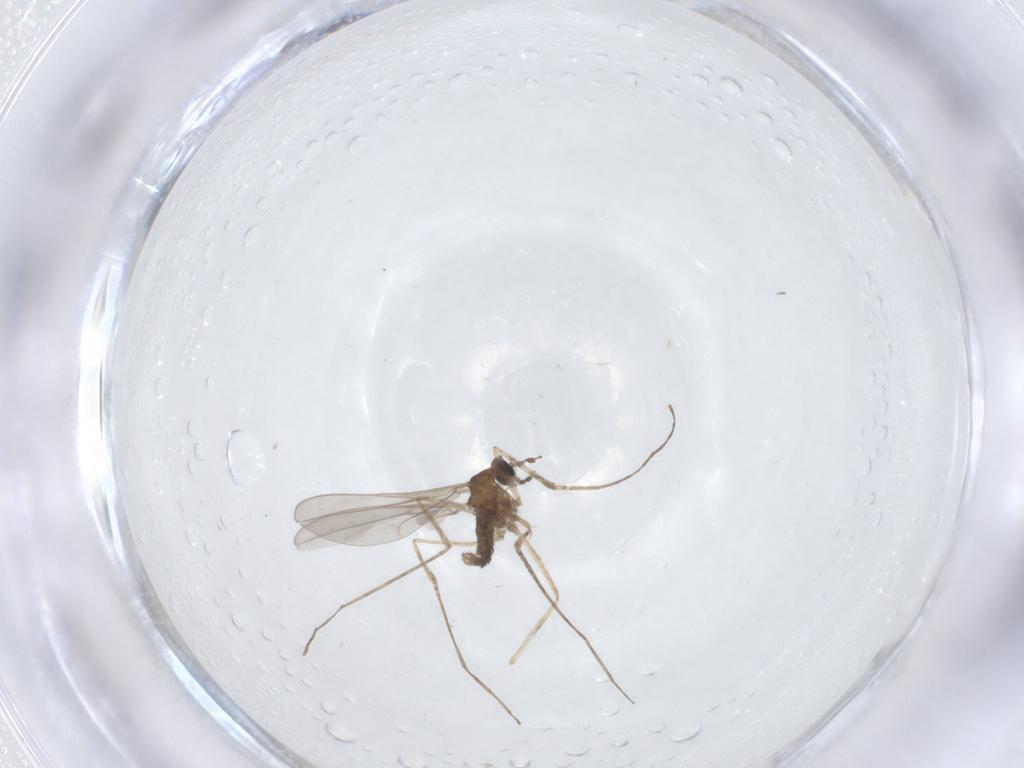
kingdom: Animalia
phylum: Arthropoda
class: Insecta
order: Diptera
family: Cecidomyiidae
